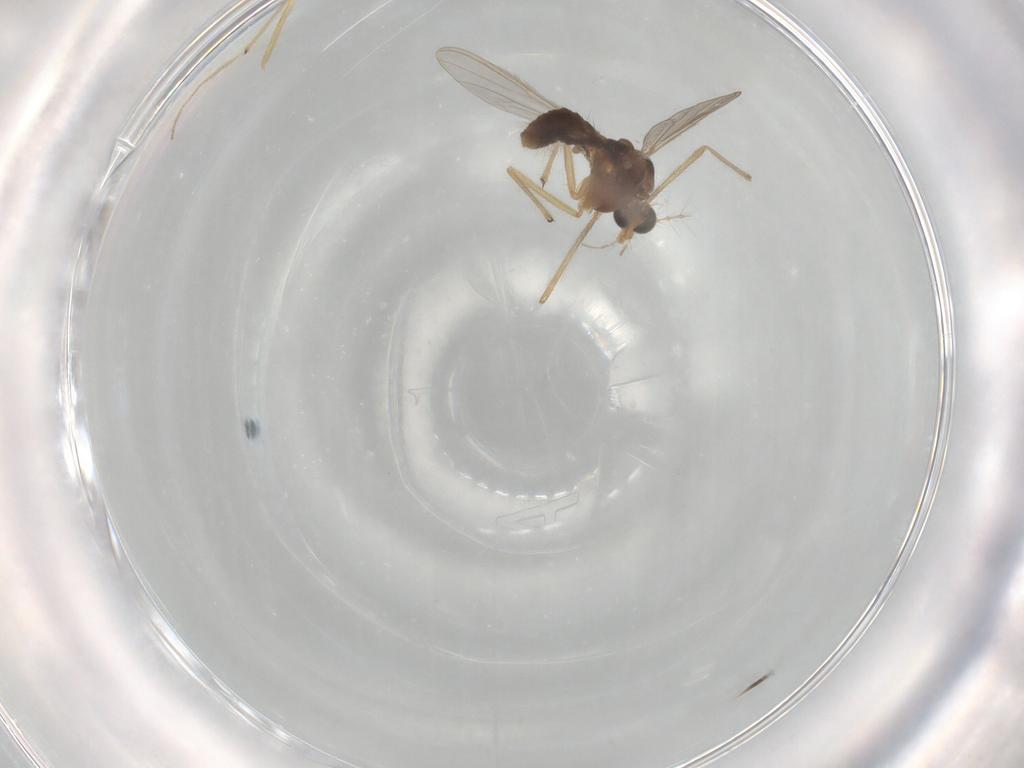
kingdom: Animalia
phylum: Arthropoda
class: Insecta
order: Diptera
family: Chironomidae
